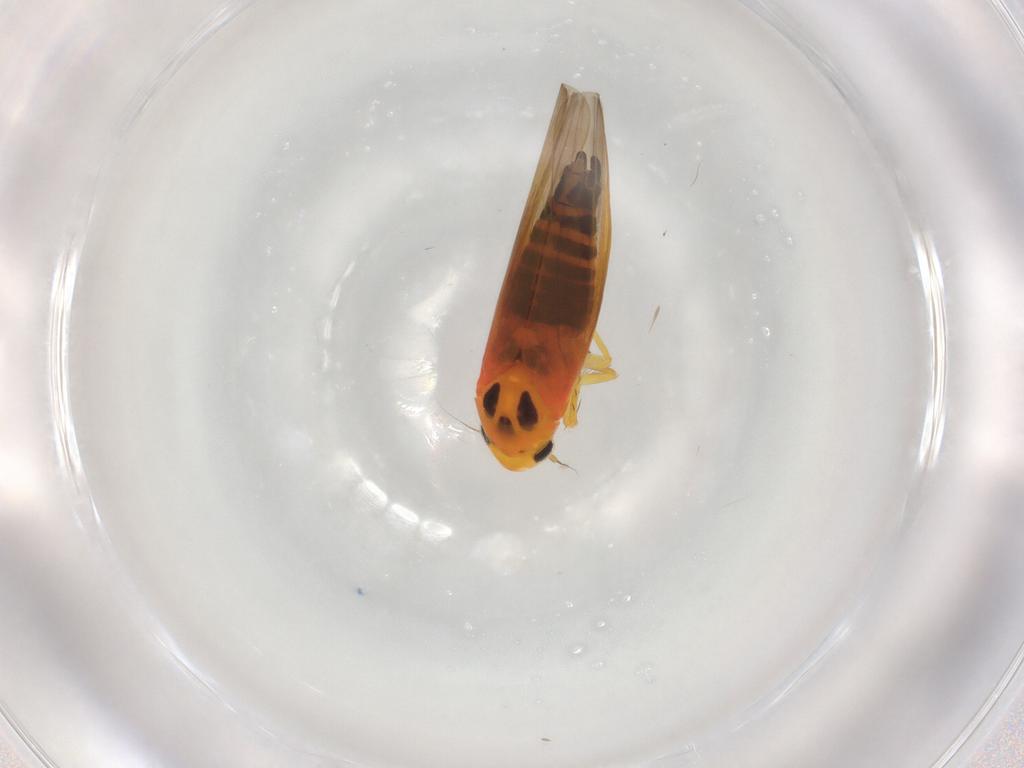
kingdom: Animalia
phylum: Arthropoda
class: Insecta
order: Hemiptera
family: Cicadellidae
